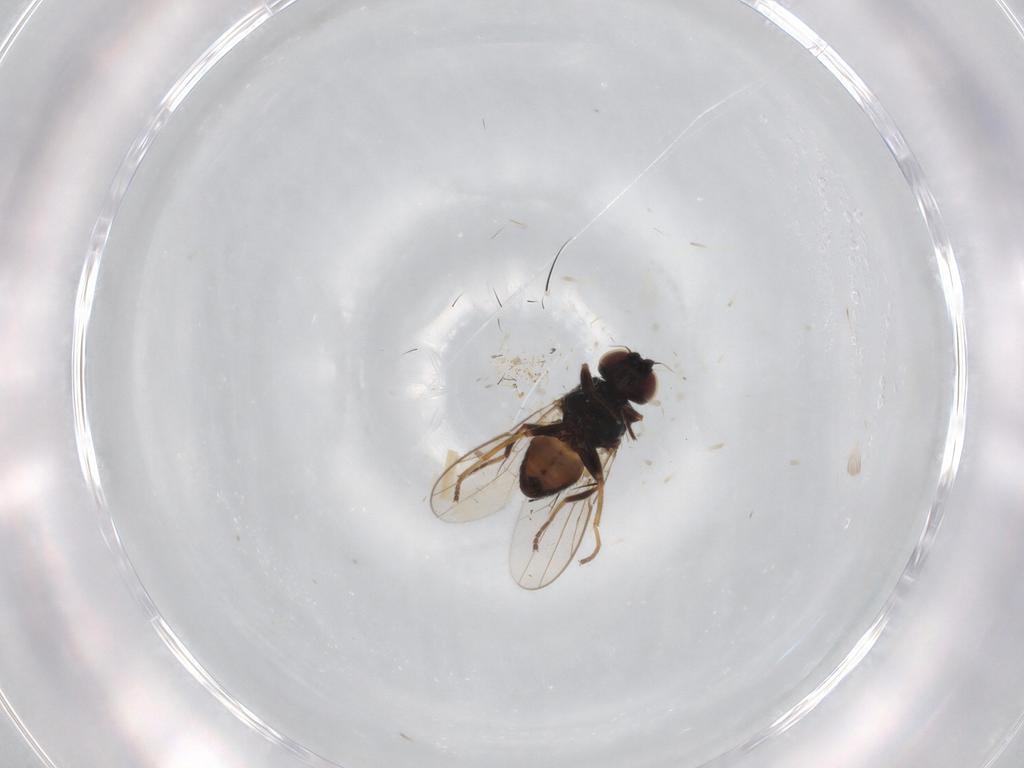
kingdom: Animalia
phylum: Arthropoda
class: Insecta
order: Diptera
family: Chloropidae
